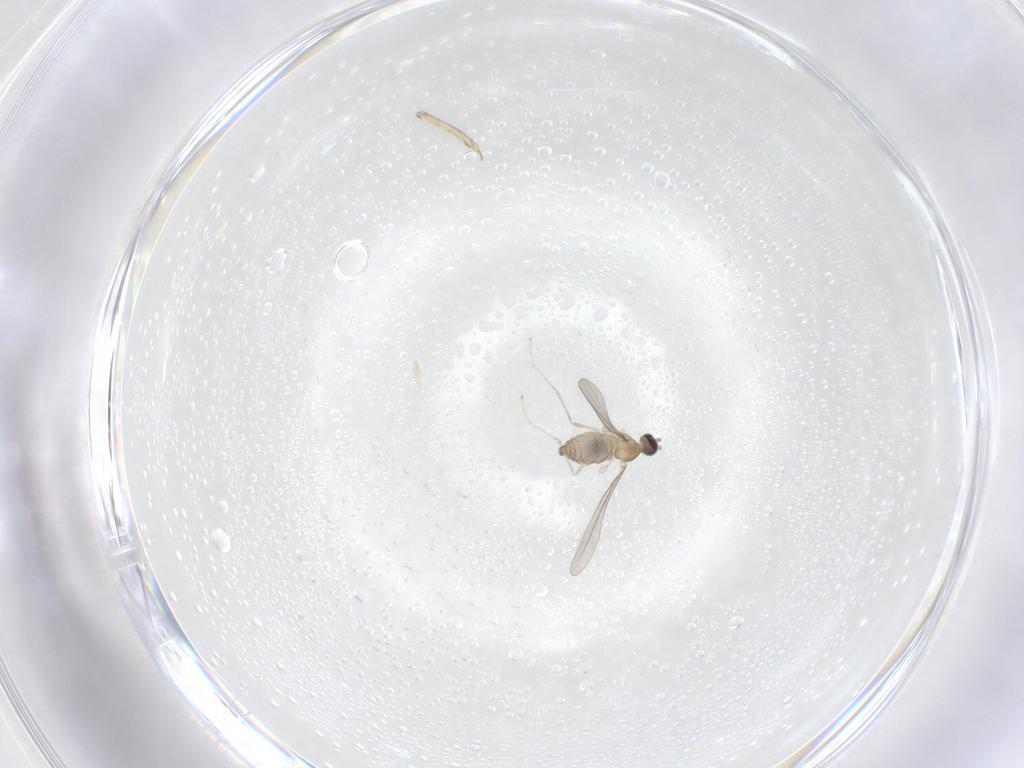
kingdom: Animalia
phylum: Arthropoda
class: Insecta
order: Diptera
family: Cecidomyiidae
